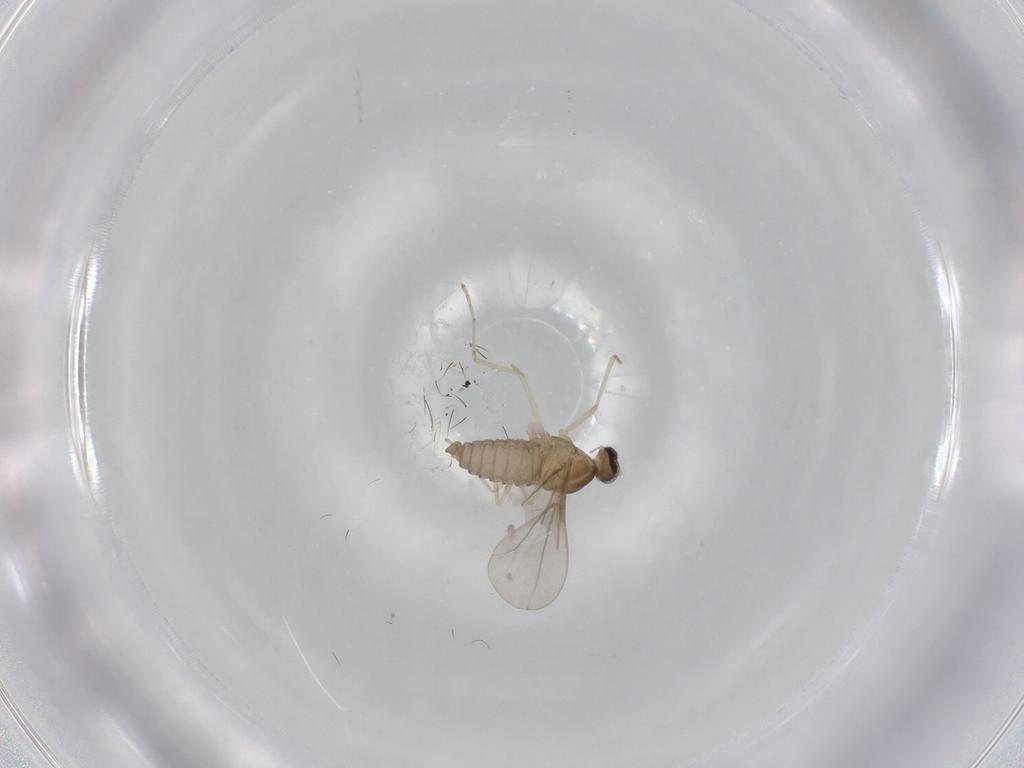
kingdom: Animalia
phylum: Arthropoda
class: Insecta
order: Diptera
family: Cecidomyiidae
